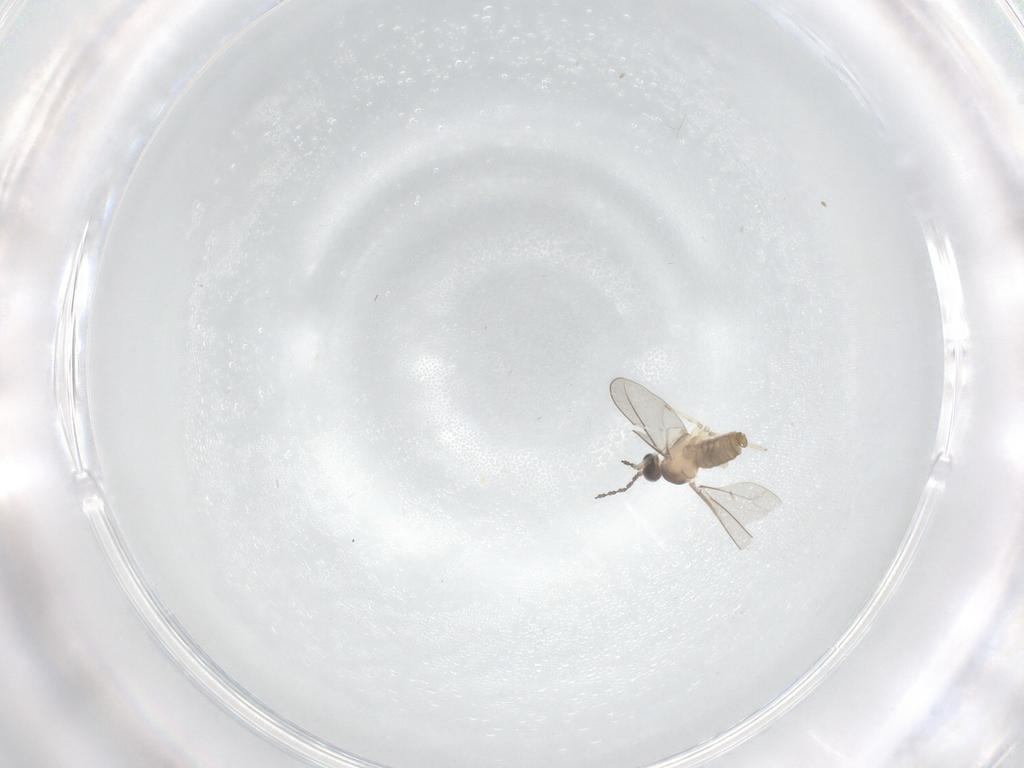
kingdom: Animalia
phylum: Arthropoda
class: Insecta
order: Diptera
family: Cecidomyiidae
